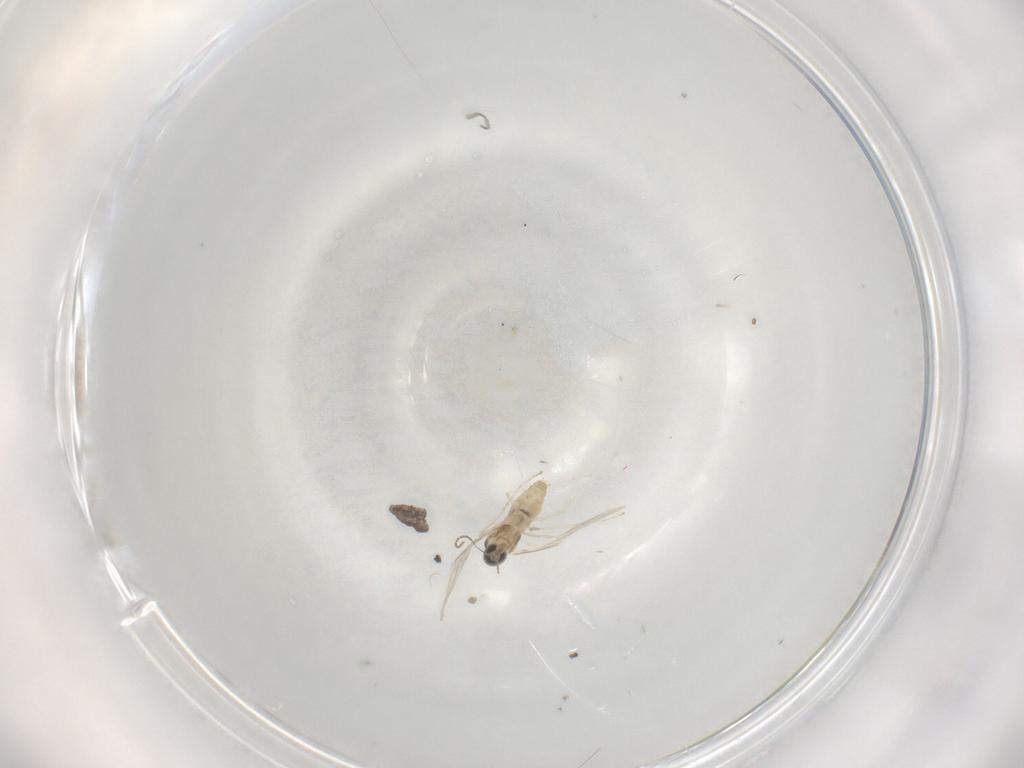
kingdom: Animalia
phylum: Arthropoda
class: Insecta
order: Diptera
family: Cecidomyiidae
